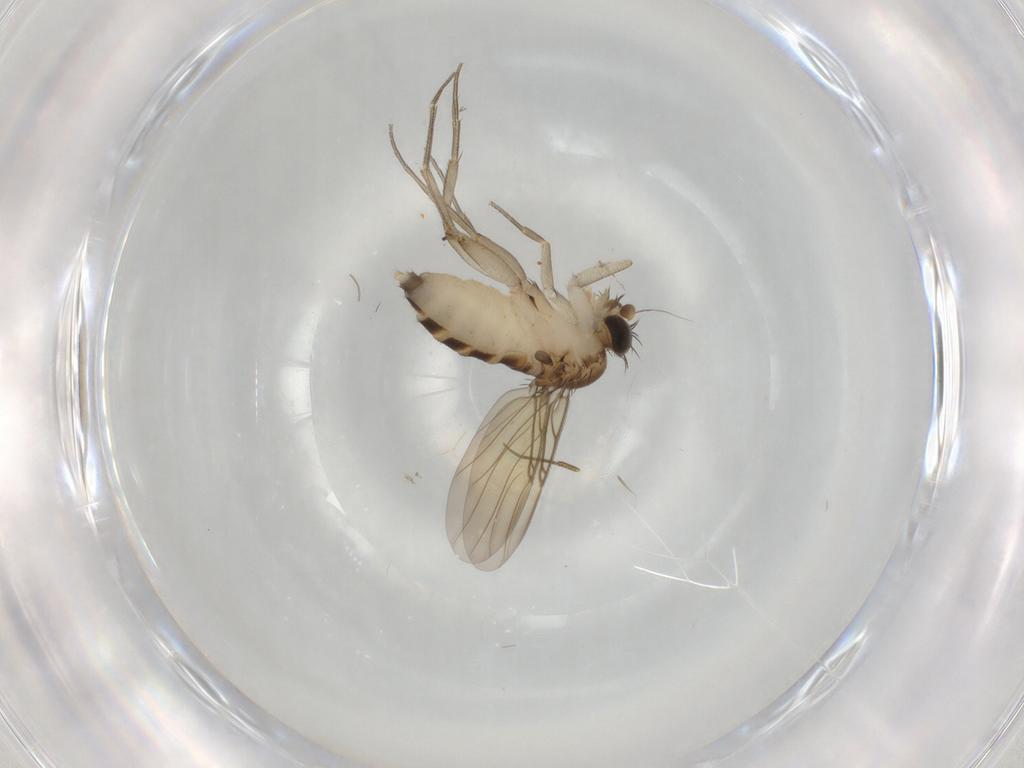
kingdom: Animalia
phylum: Arthropoda
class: Insecta
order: Diptera
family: Phoridae
